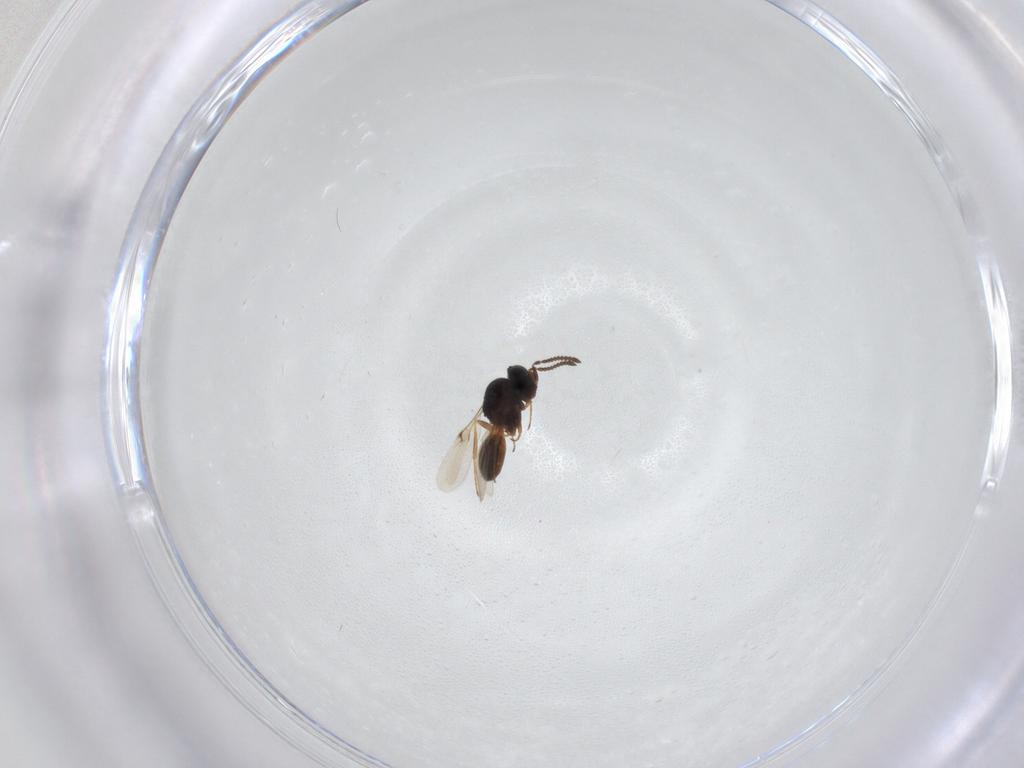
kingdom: Animalia
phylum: Arthropoda
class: Arachnida
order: Araneae
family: Pholcidae
